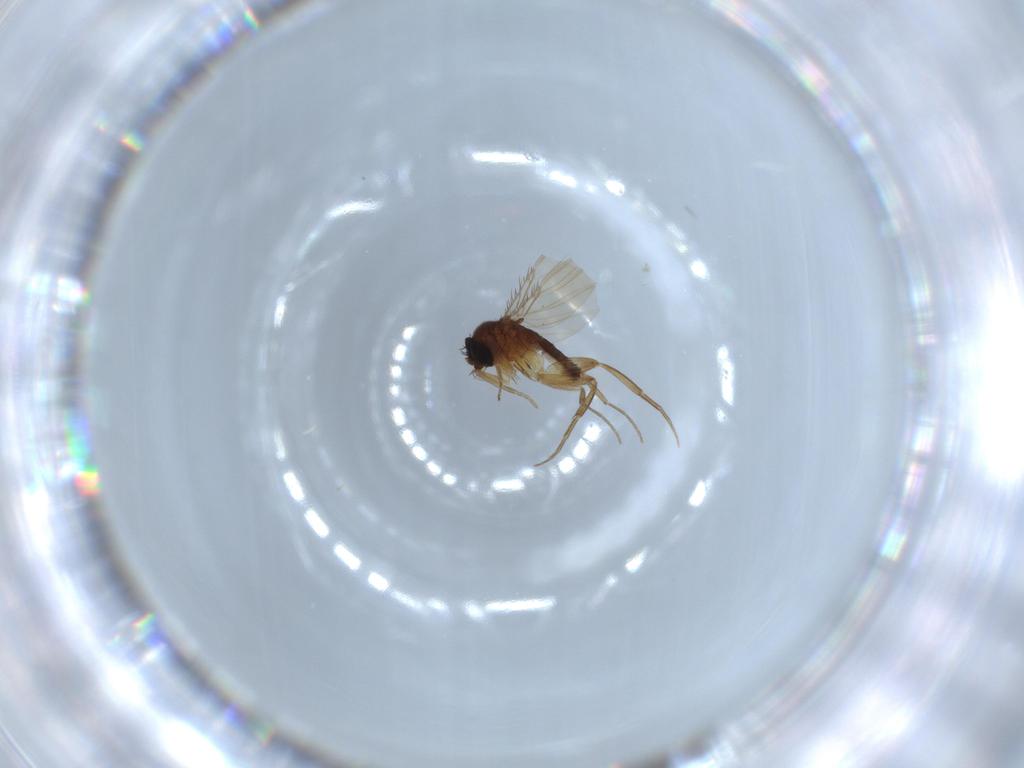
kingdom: Animalia
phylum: Arthropoda
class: Insecta
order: Diptera
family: Phoridae
